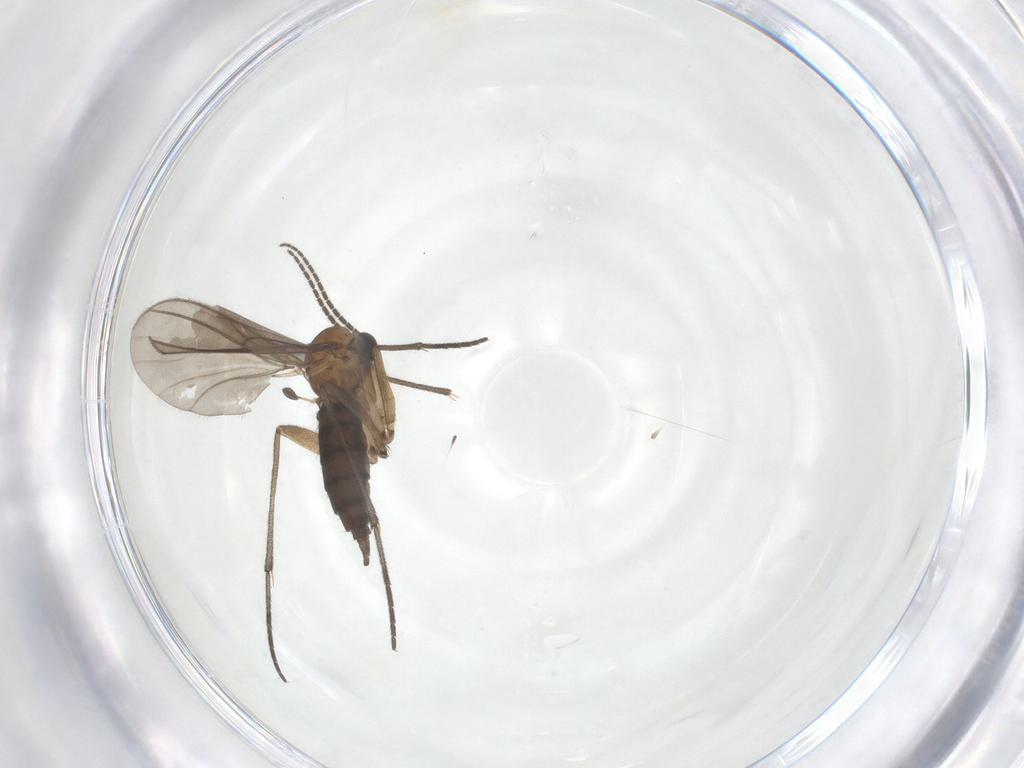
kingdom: Animalia
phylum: Arthropoda
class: Insecta
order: Diptera
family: Sciaridae
